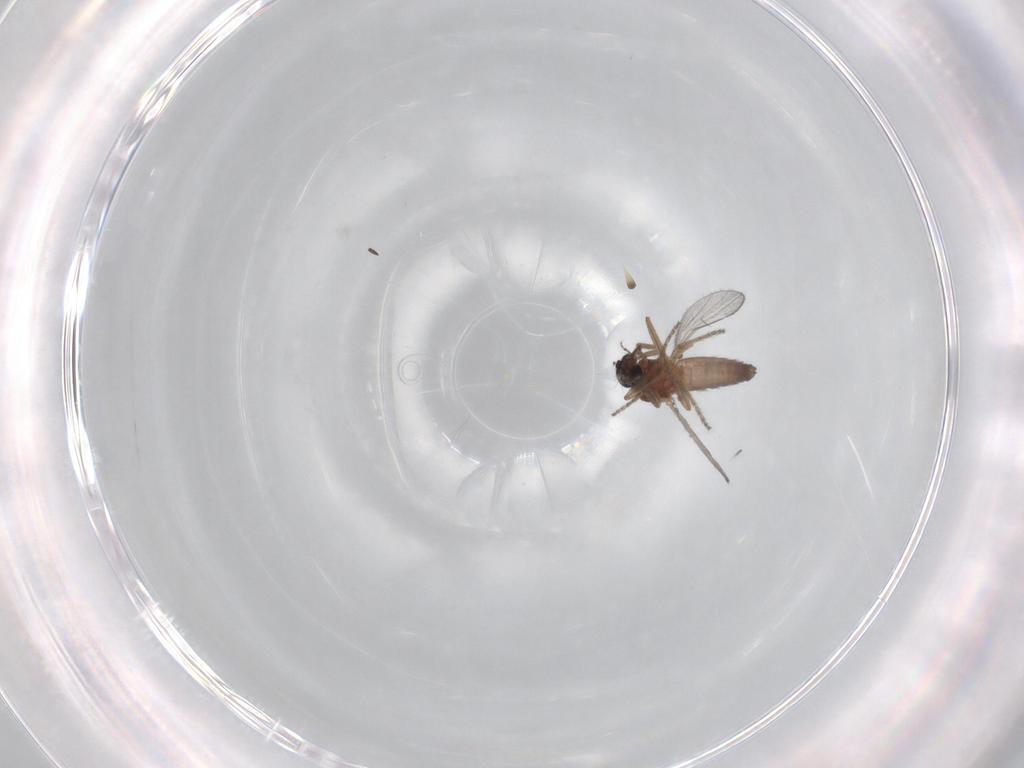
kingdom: Animalia
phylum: Arthropoda
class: Insecta
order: Diptera
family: Ceratopogonidae
